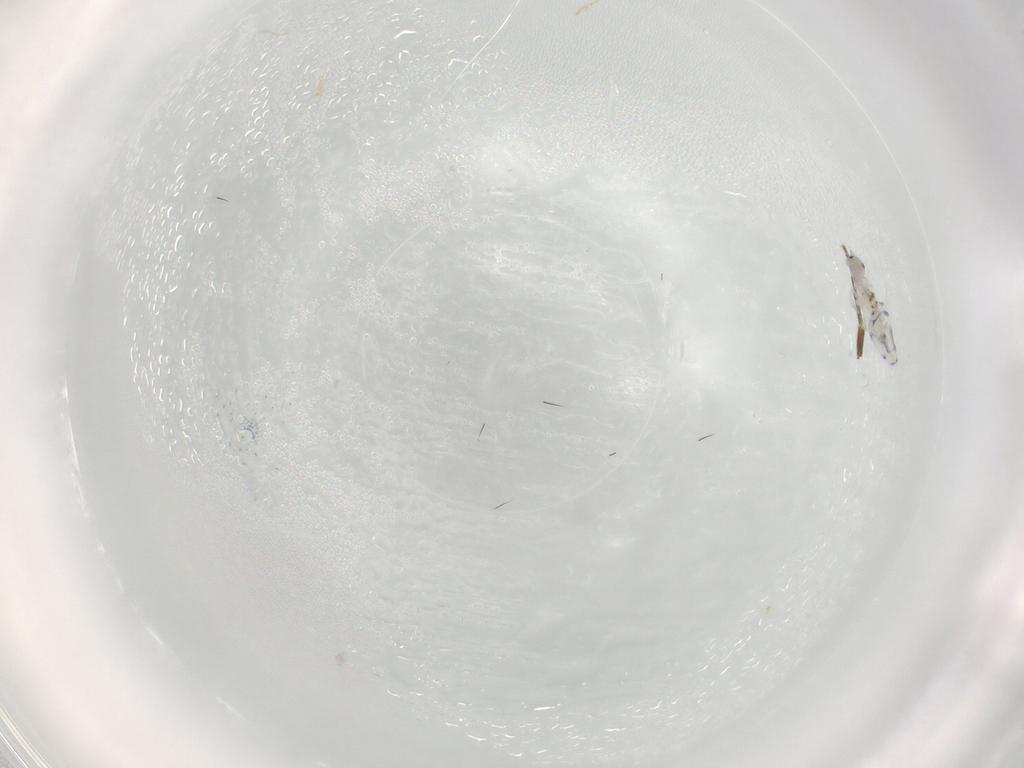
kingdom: Animalia
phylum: Arthropoda
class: Collembola
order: Entomobryomorpha
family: Entomobryidae
